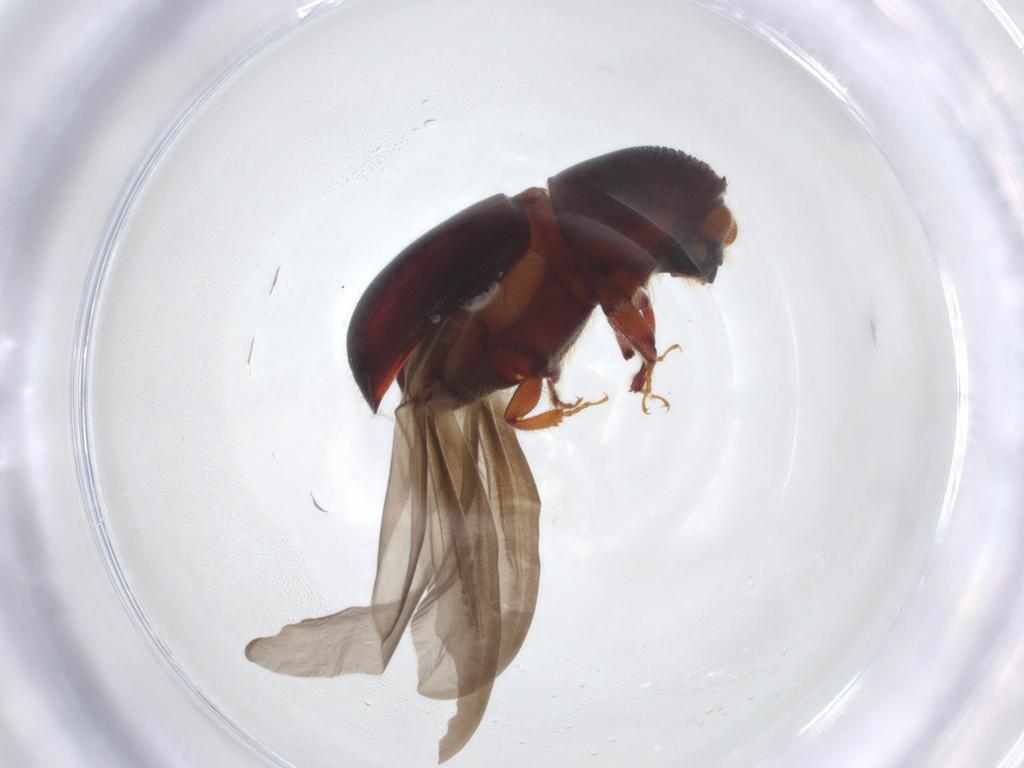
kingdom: Animalia
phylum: Arthropoda
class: Insecta
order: Coleoptera
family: Curculionidae
